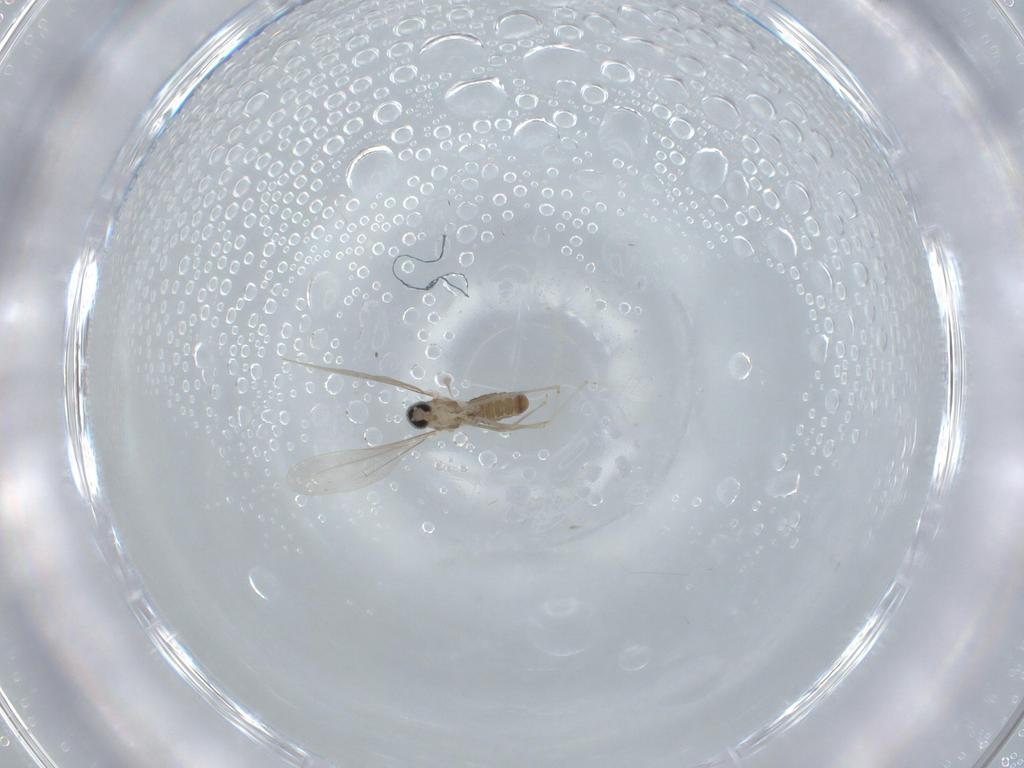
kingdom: Animalia
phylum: Arthropoda
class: Insecta
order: Diptera
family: Cecidomyiidae
